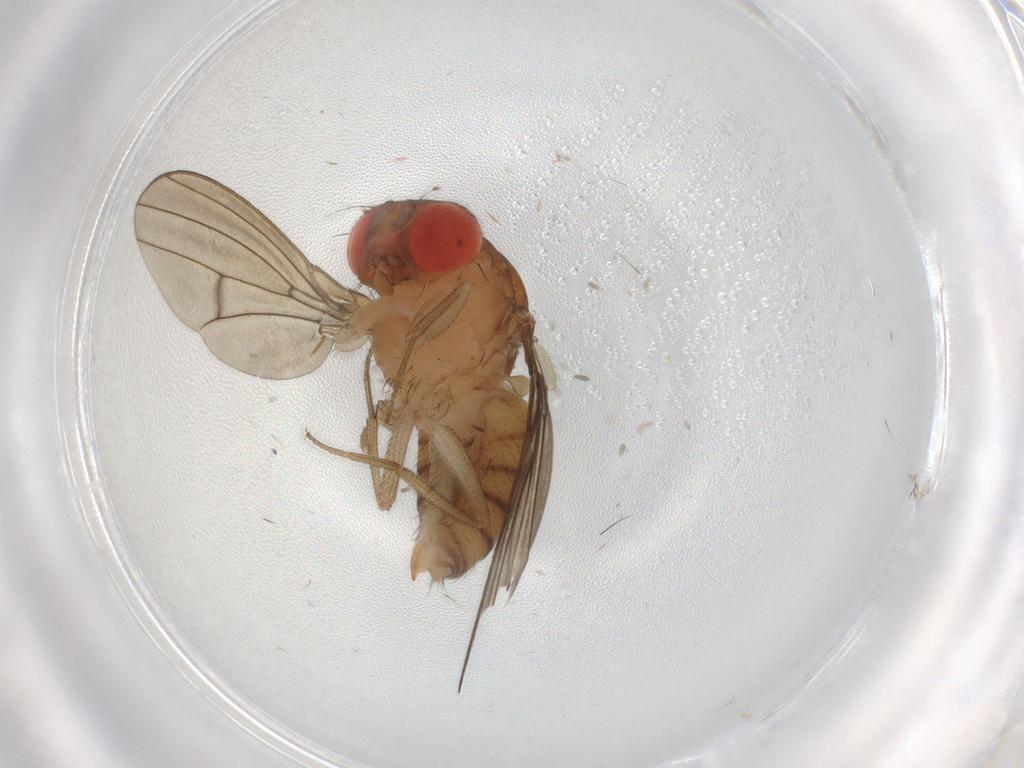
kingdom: Animalia
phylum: Arthropoda
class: Insecta
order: Diptera
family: Drosophilidae
